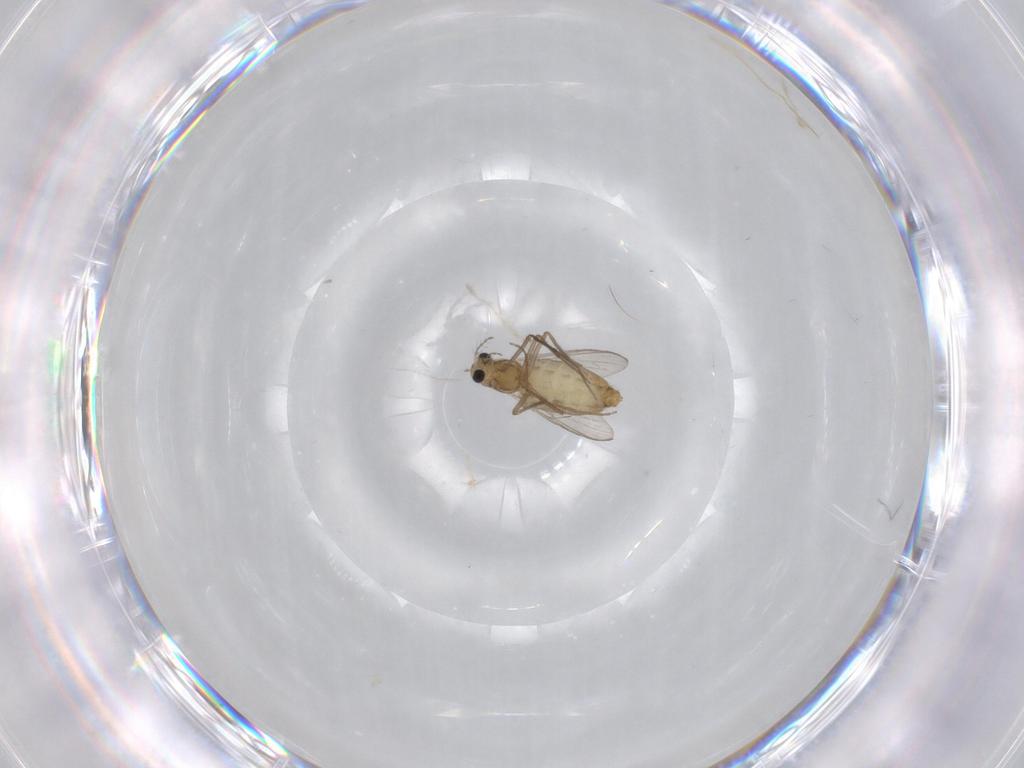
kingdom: Animalia
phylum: Arthropoda
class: Insecta
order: Diptera
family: Chironomidae
